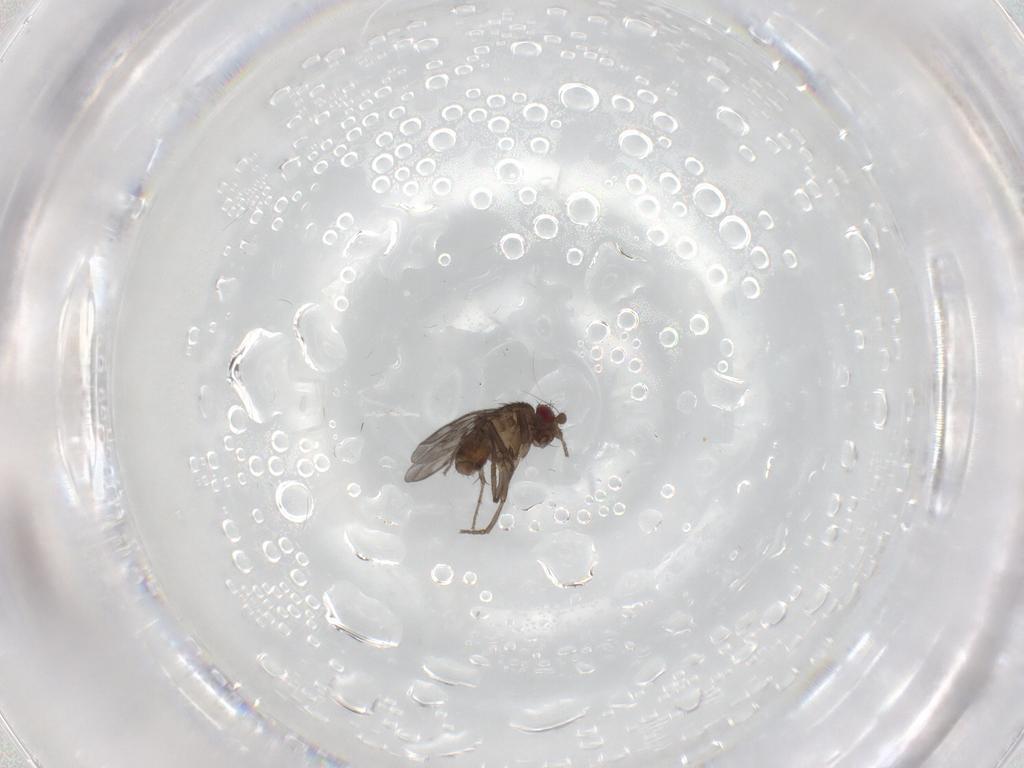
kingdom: Animalia
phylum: Arthropoda
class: Insecta
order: Diptera
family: Sphaeroceridae
